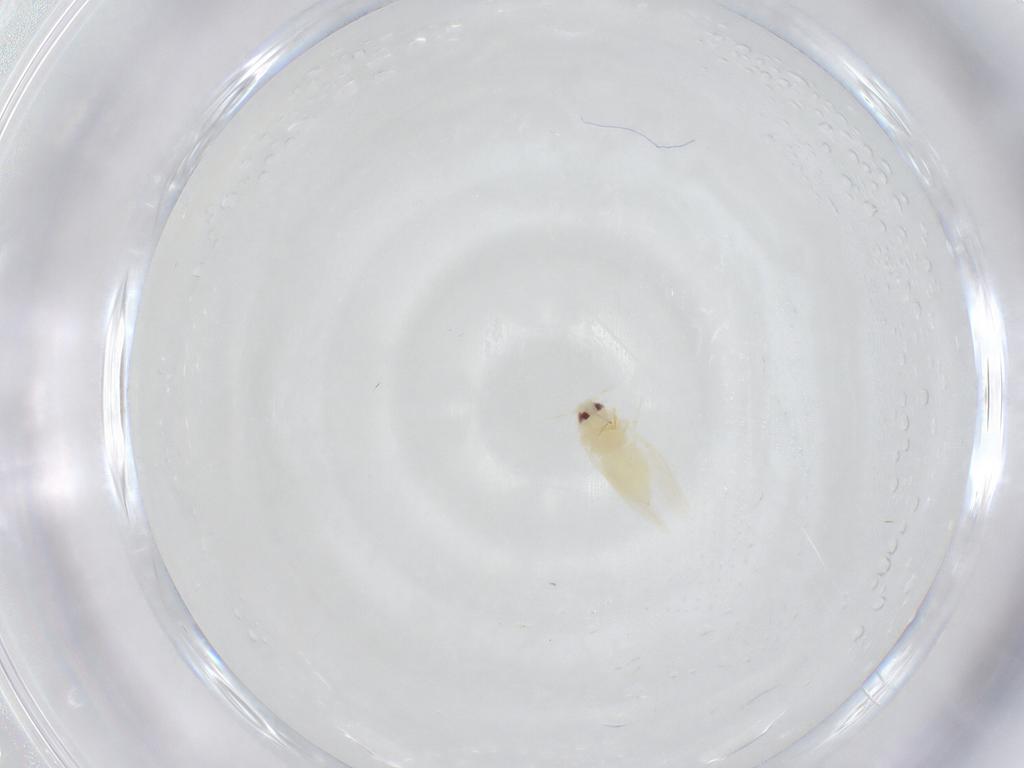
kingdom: Animalia
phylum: Arthropoda
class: Insecta
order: Hemiptera
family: Aleyrodidae
